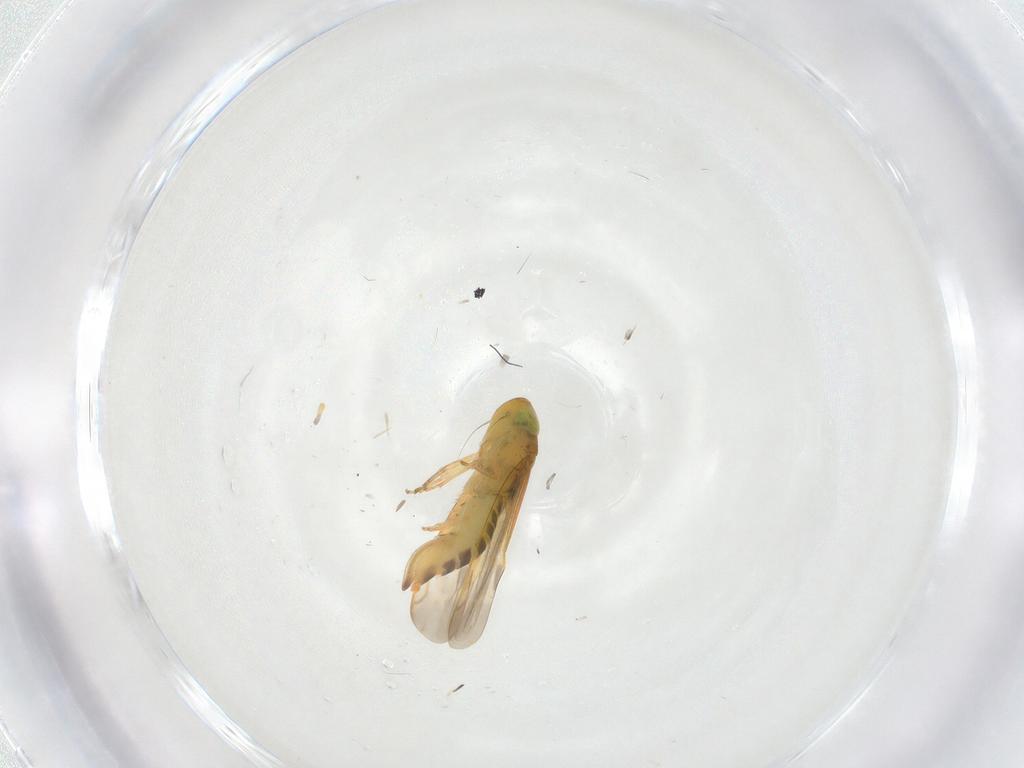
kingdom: Animalia
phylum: Arthropoda
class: Insecta
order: Hemiptera
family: Cicadellidae
